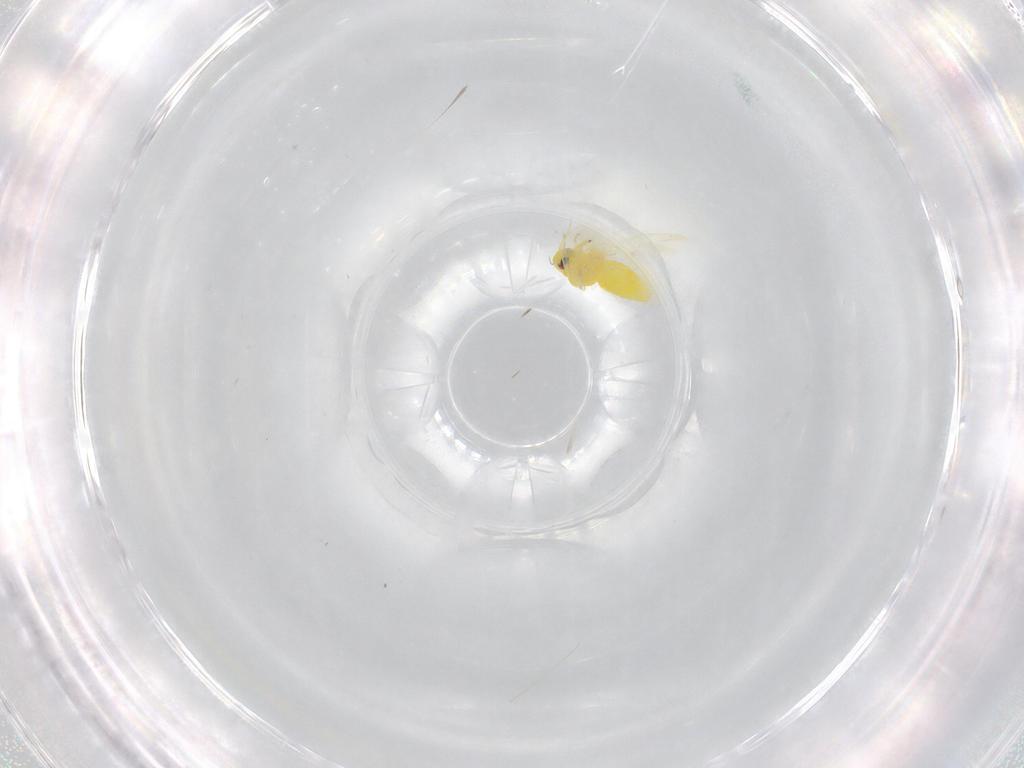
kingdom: Animalia
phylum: Arthropoda
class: Insecta
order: Hemiptera
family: Aleyrodidae
